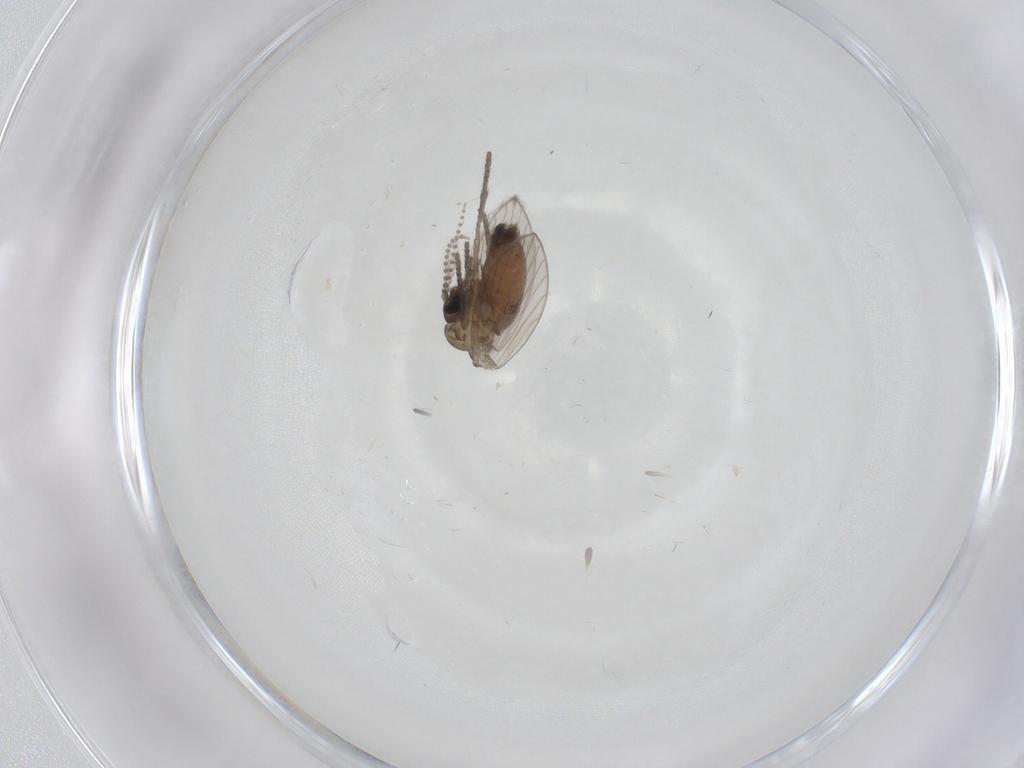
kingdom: Animalia
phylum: Arthropoda
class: Insecta
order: Diptera
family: Psychodidae
